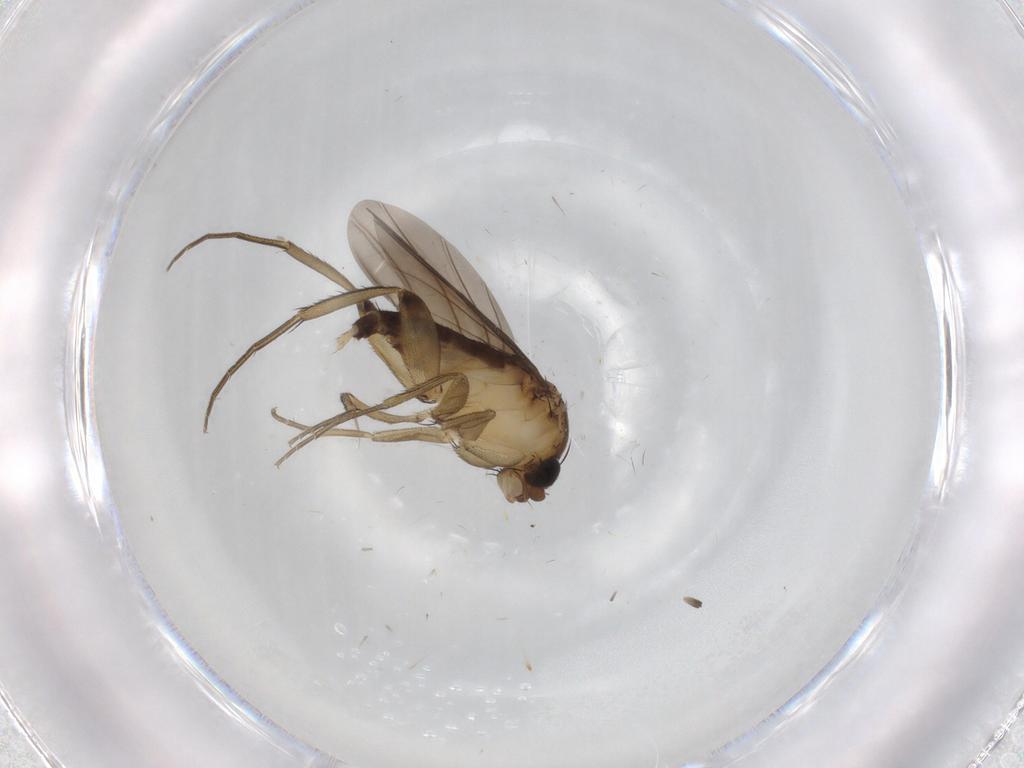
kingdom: Animalia
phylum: Arthropoda
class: Insecta
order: Diptera
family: Phoridae
